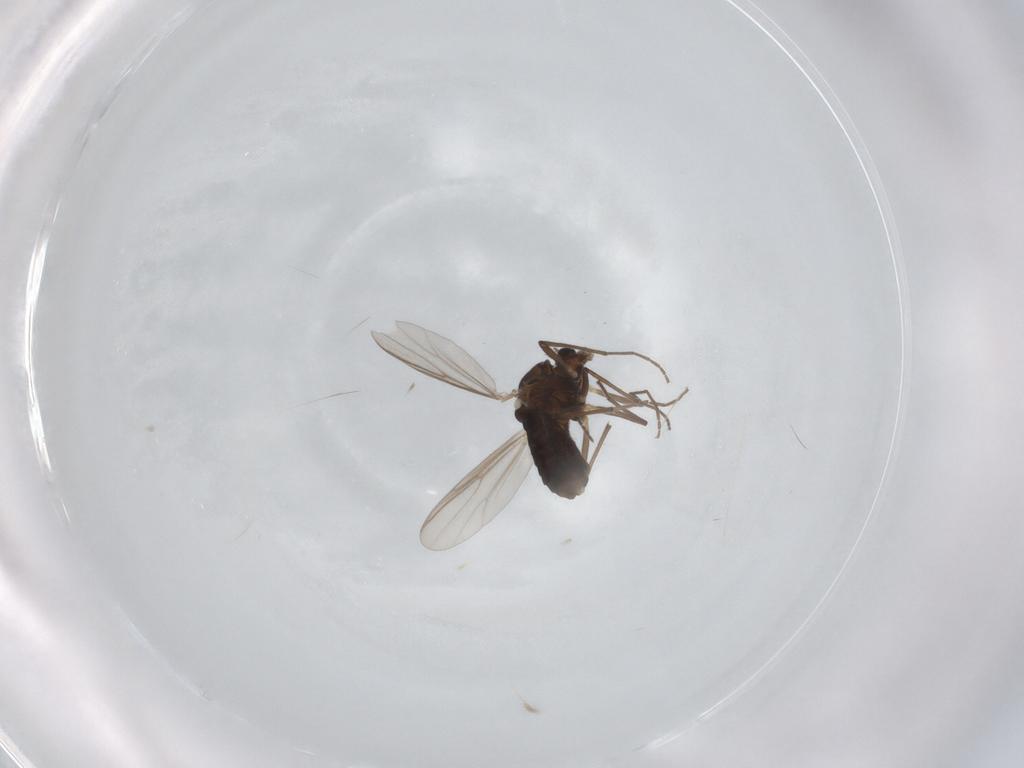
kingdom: Animalia
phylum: Arthropoda
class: Insecta
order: Diptera
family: Chironomidae
